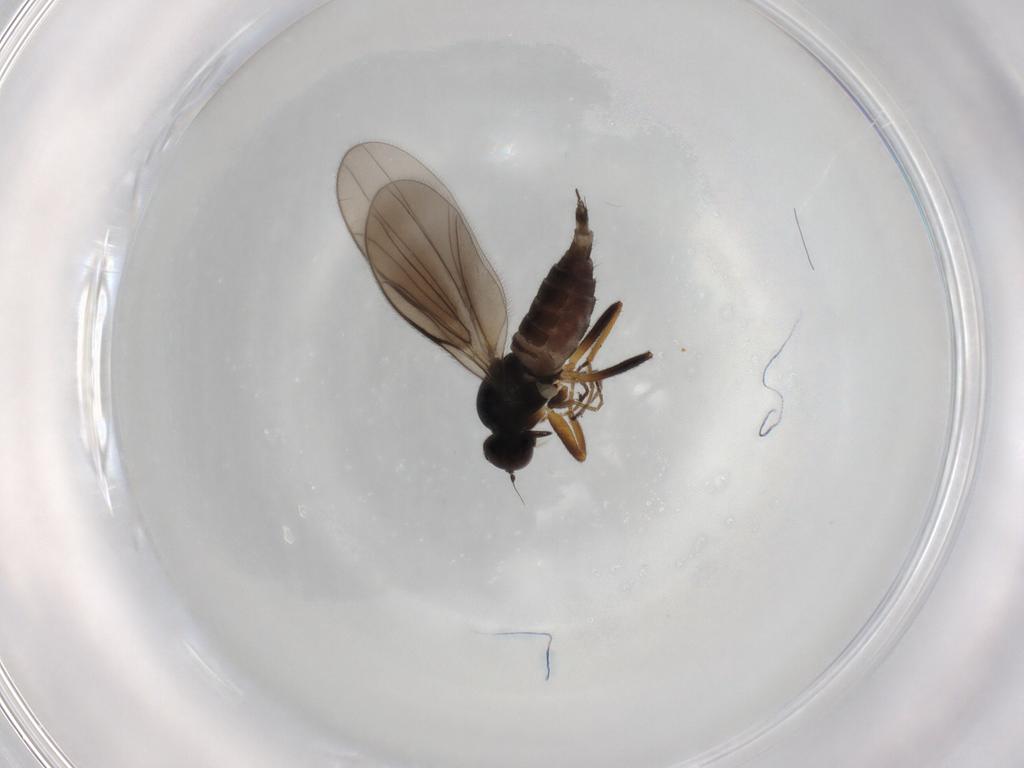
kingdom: Animalia
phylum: Arthropoda
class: Insecta
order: Diptera
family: Hybotidae
